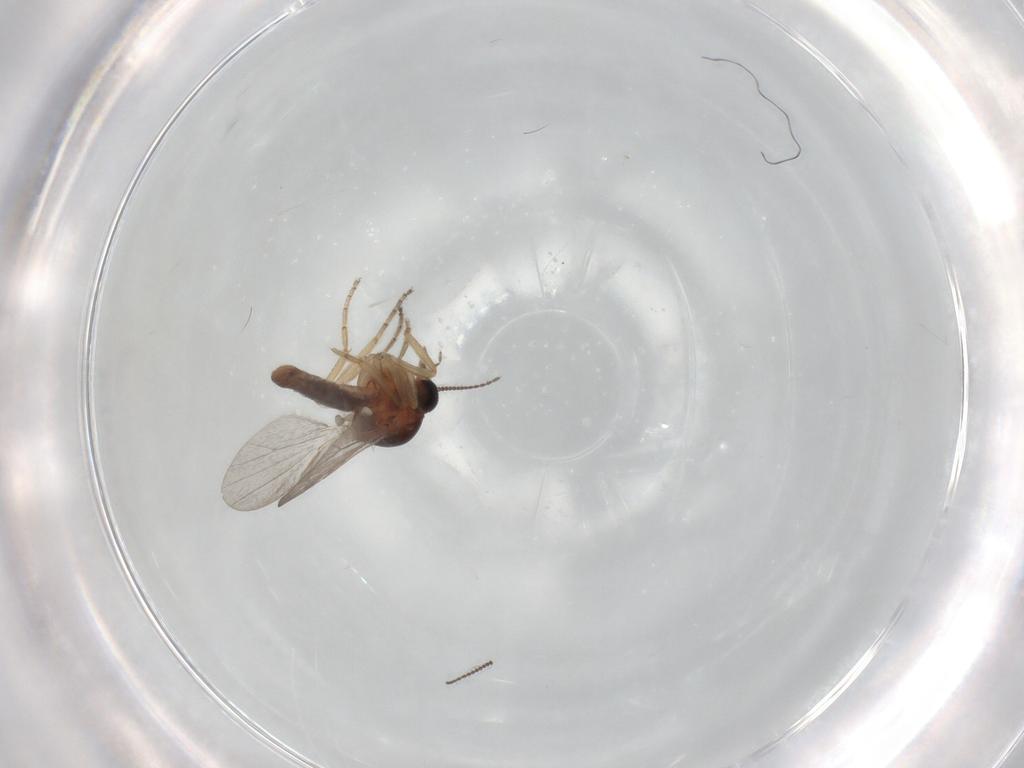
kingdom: Animalia
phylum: Arthropoda
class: Insecta
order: Diptera
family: Ceratopogonidae
